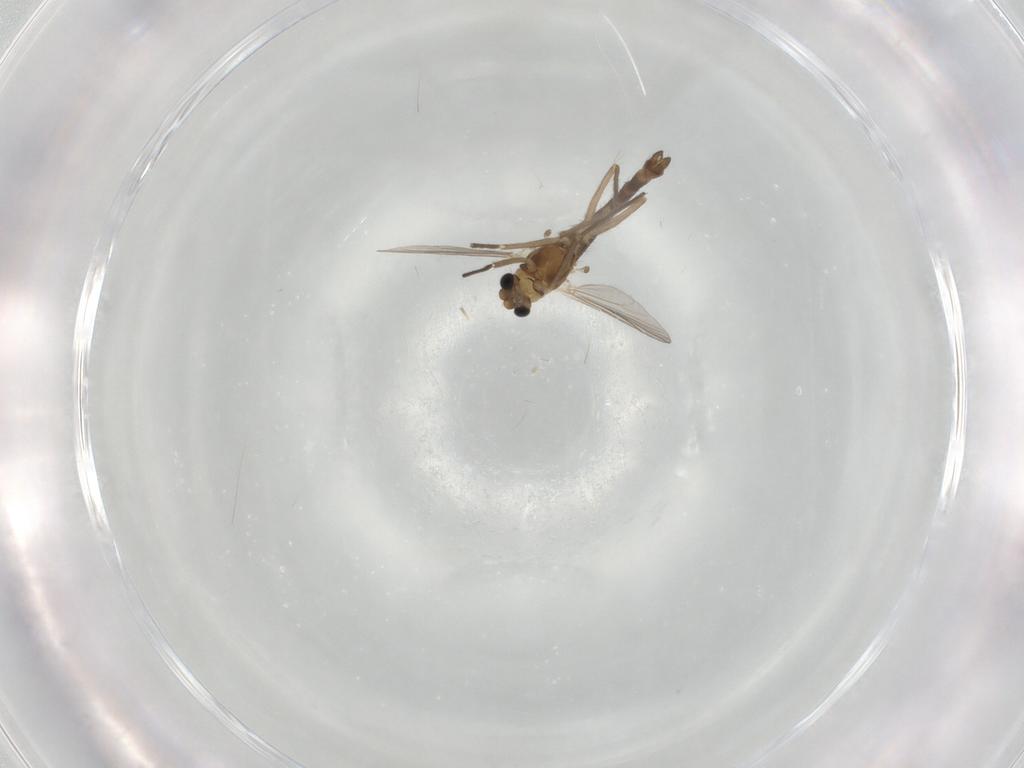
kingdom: Animalia
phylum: Arthropoda
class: Insecta
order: Diptera
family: Chironomidae
